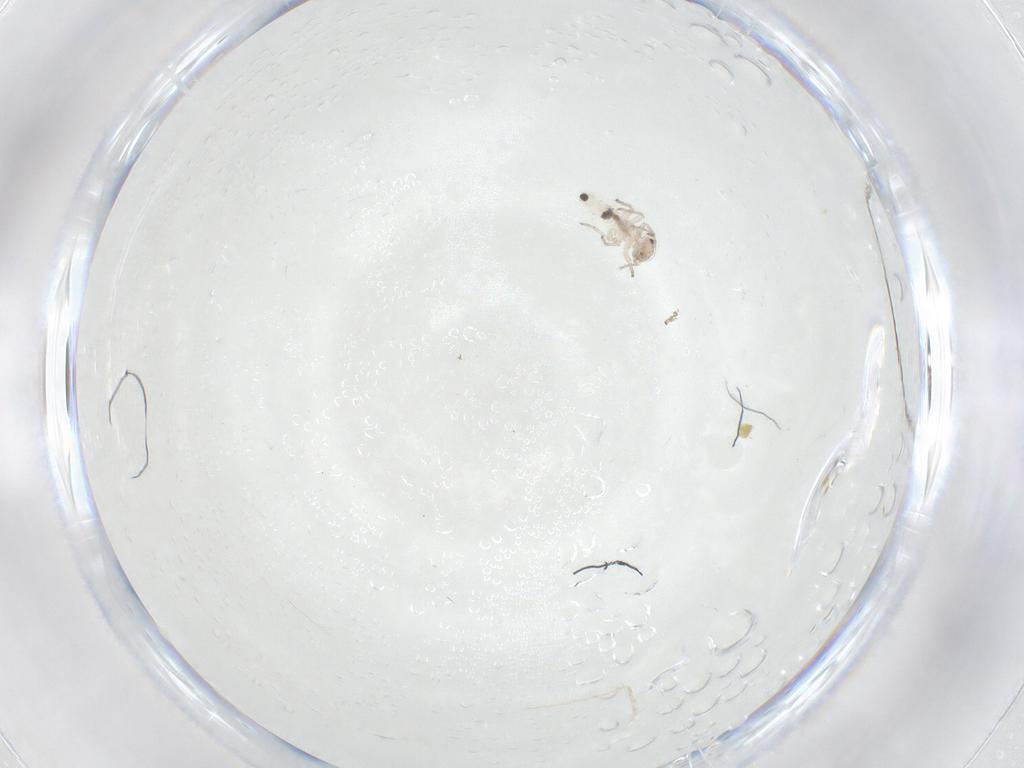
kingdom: Animalia
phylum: Arthropoda
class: Insecta
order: Psocodea
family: Myopsocidae
